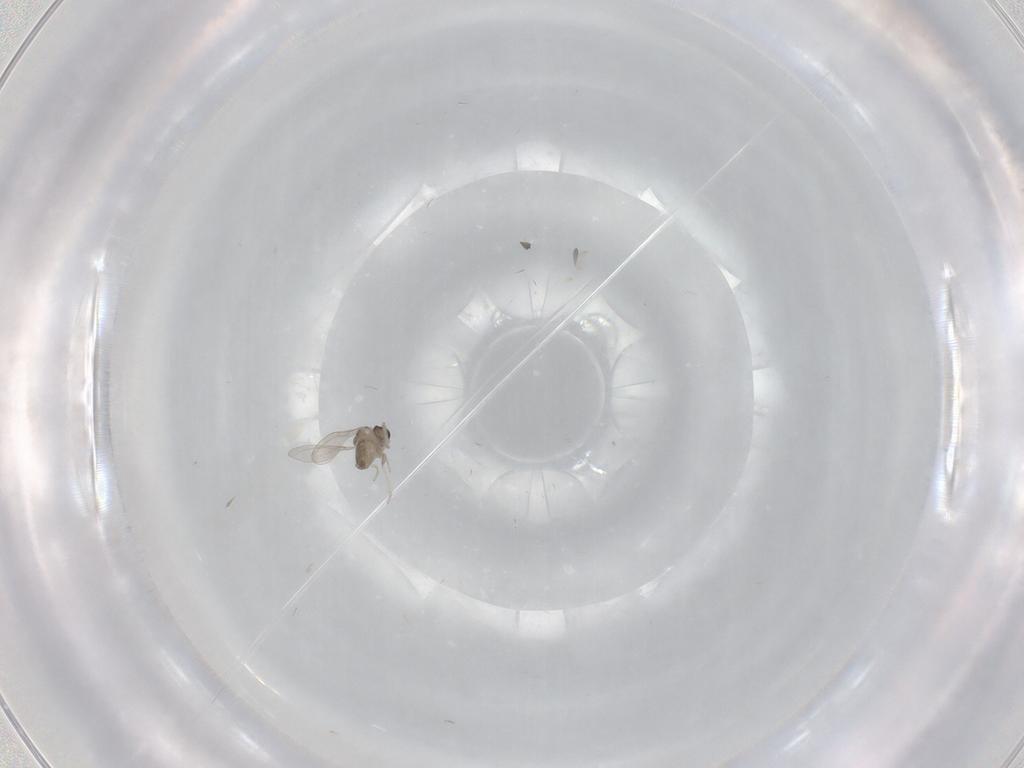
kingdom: Animalia
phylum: Arthropoda
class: Insecta
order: Diptera
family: Cecidomyiidae
